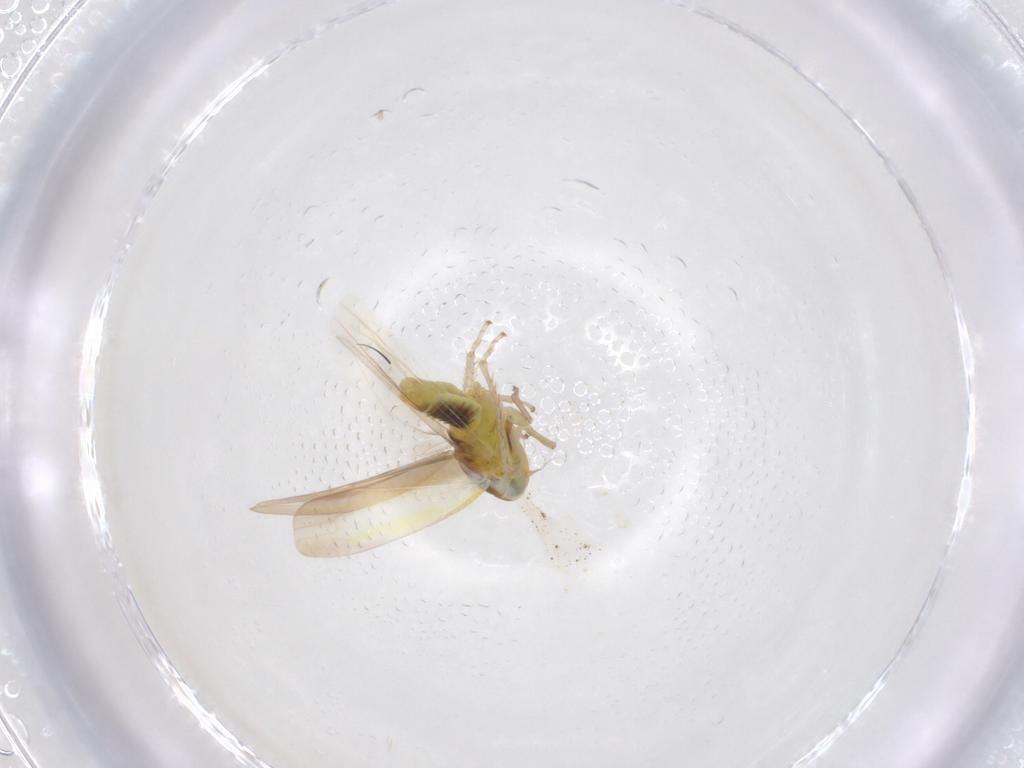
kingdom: Animalia
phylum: Arthropoda
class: Insecta
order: Hemiptera
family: Cicadellidae
